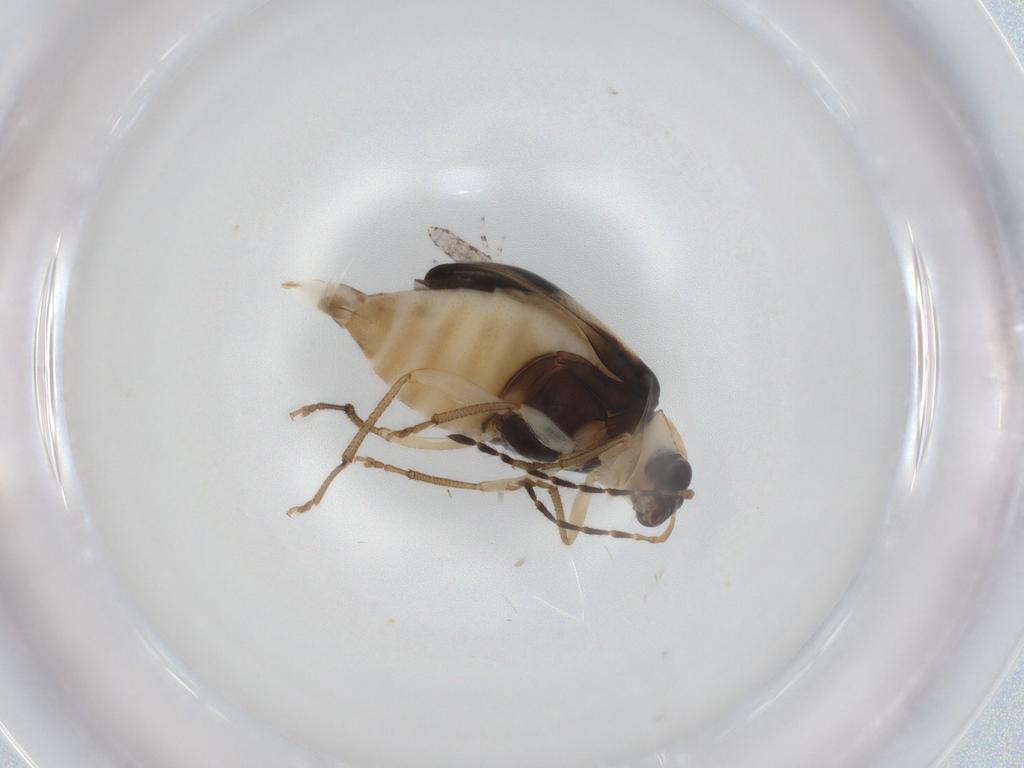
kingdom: Animalia
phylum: Arthropoda
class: Insecta
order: Coleoptera
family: Chrysomelidae
